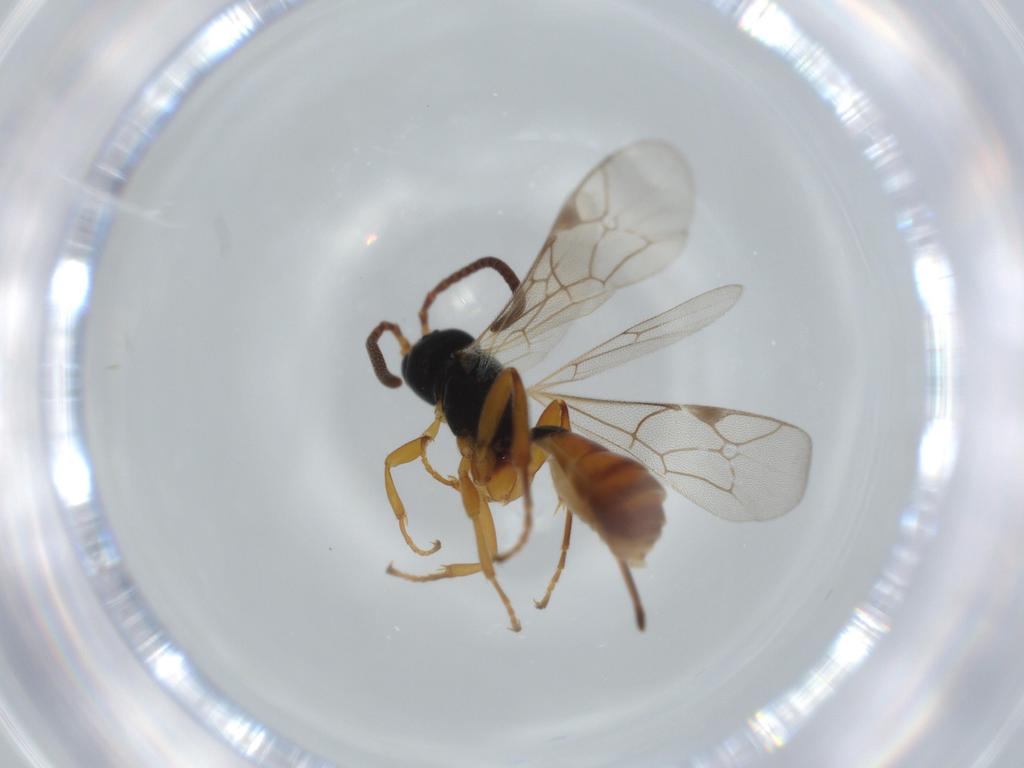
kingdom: Animalia
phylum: Arthropoda
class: Insecta
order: Hymenoptera
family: Ichneumonidae
